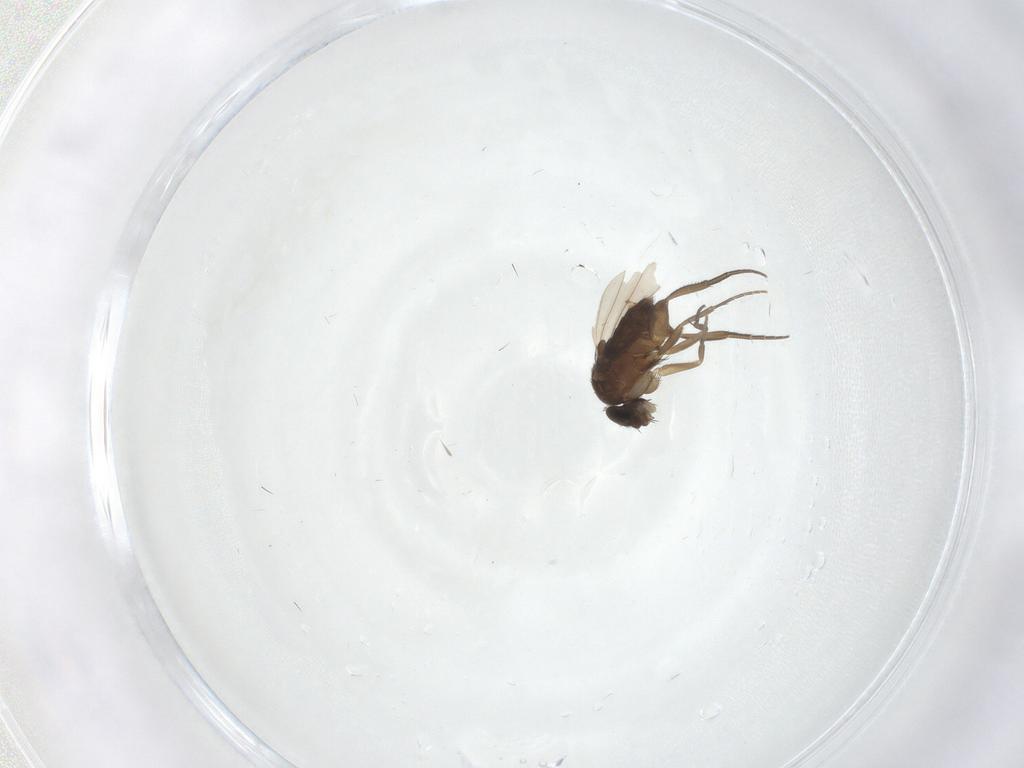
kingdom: Animalia
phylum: Arthropoda
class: Insecta
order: Diptera
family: Phoridae
